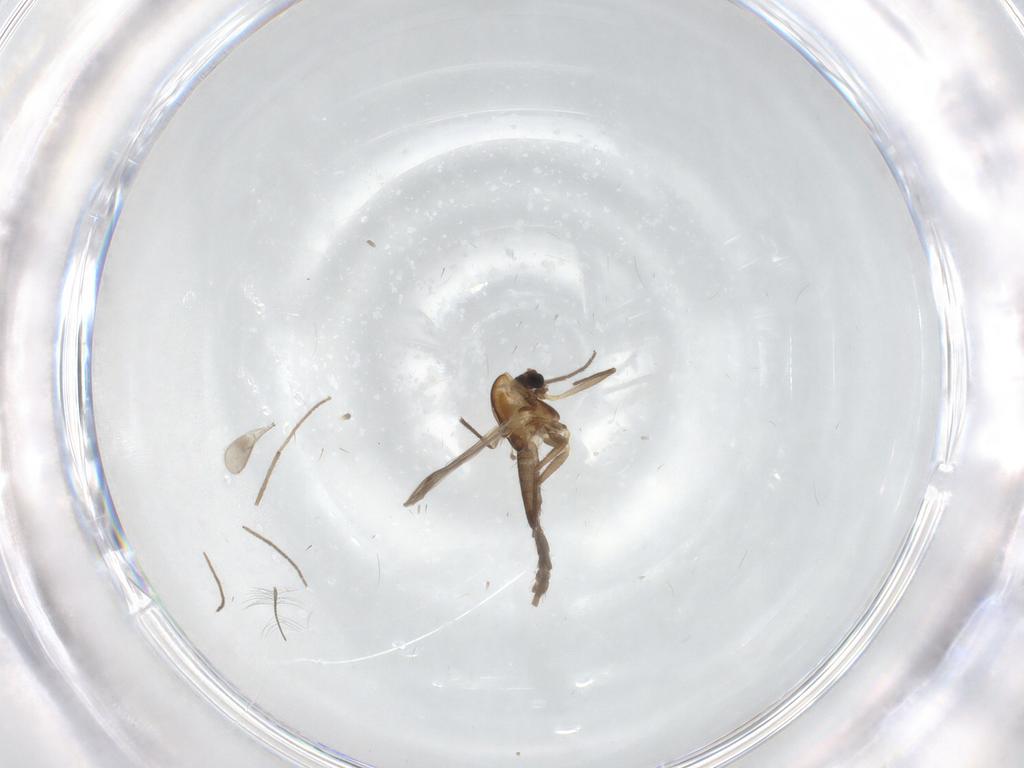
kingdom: Animalia
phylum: Arthropoda
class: Insecta
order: Diptera
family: Chironomidae
